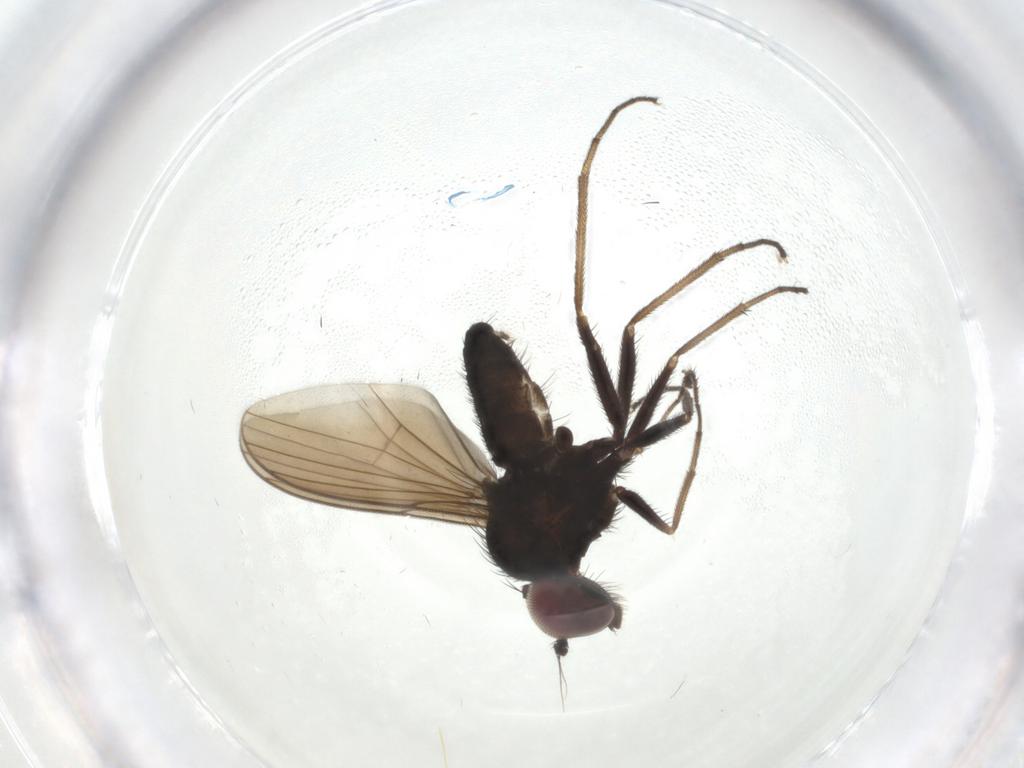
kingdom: Animalia
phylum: Arthropoda
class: Insecta
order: Diptera
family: Dolichopodidae
